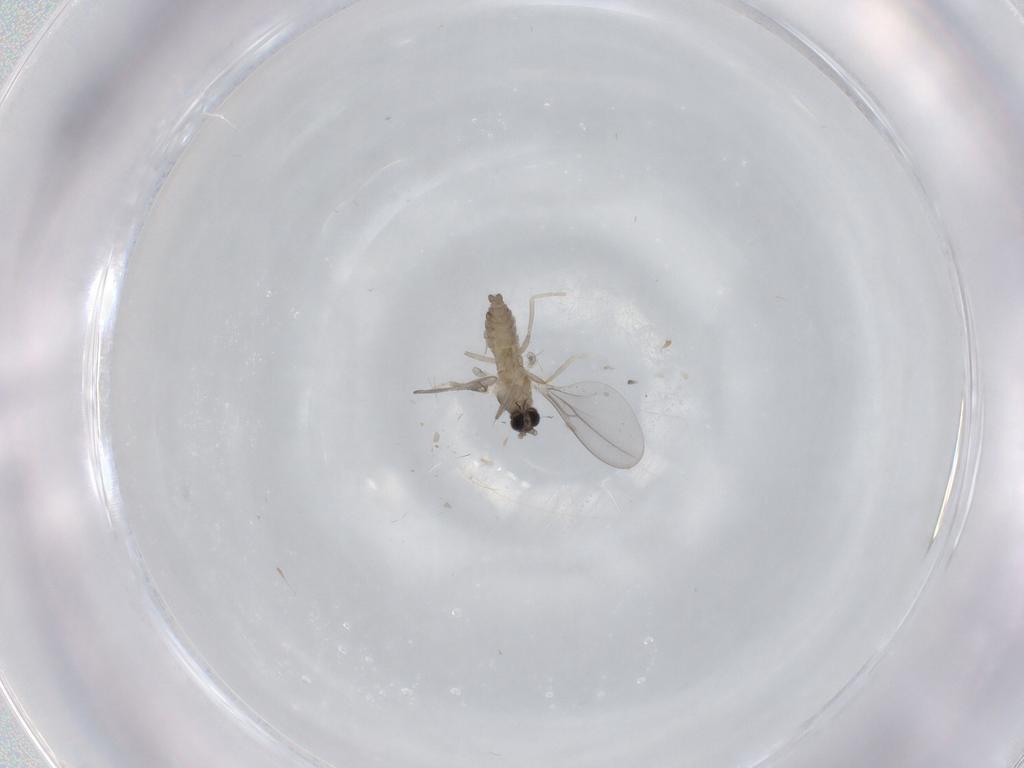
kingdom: Animalia
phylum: Arthropoda
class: Insecta
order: Diptera
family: Cecidomyiidae
